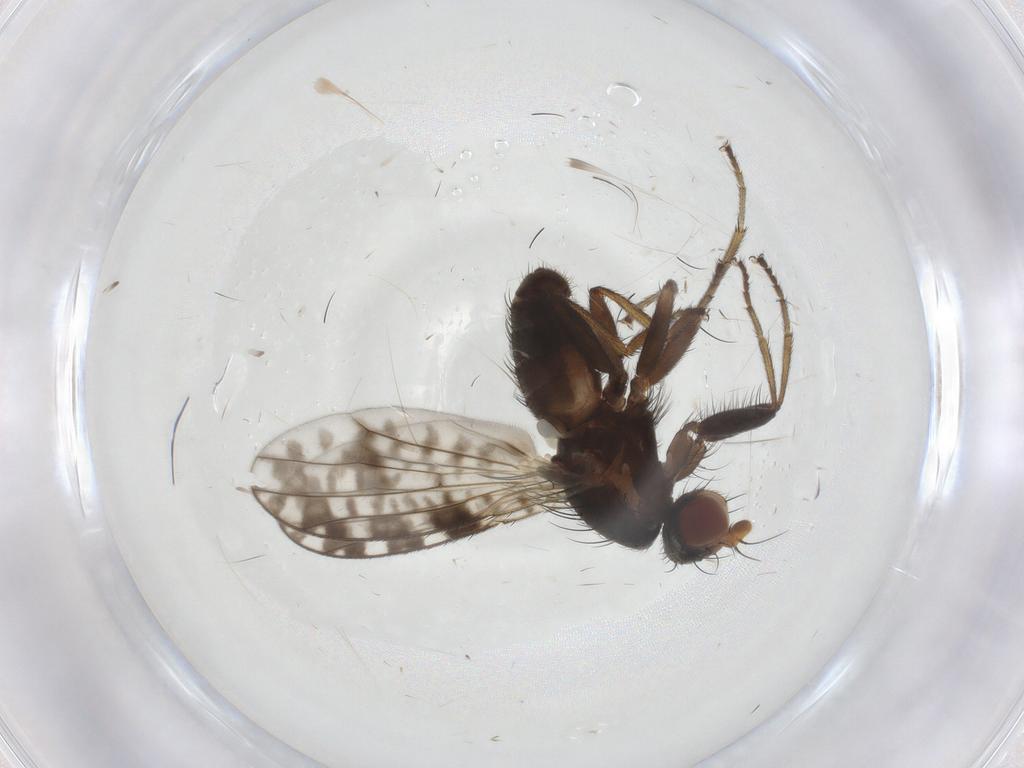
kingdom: Animalia
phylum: Arthropoda
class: Insecta
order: Diptera
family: Heleomyzidae
